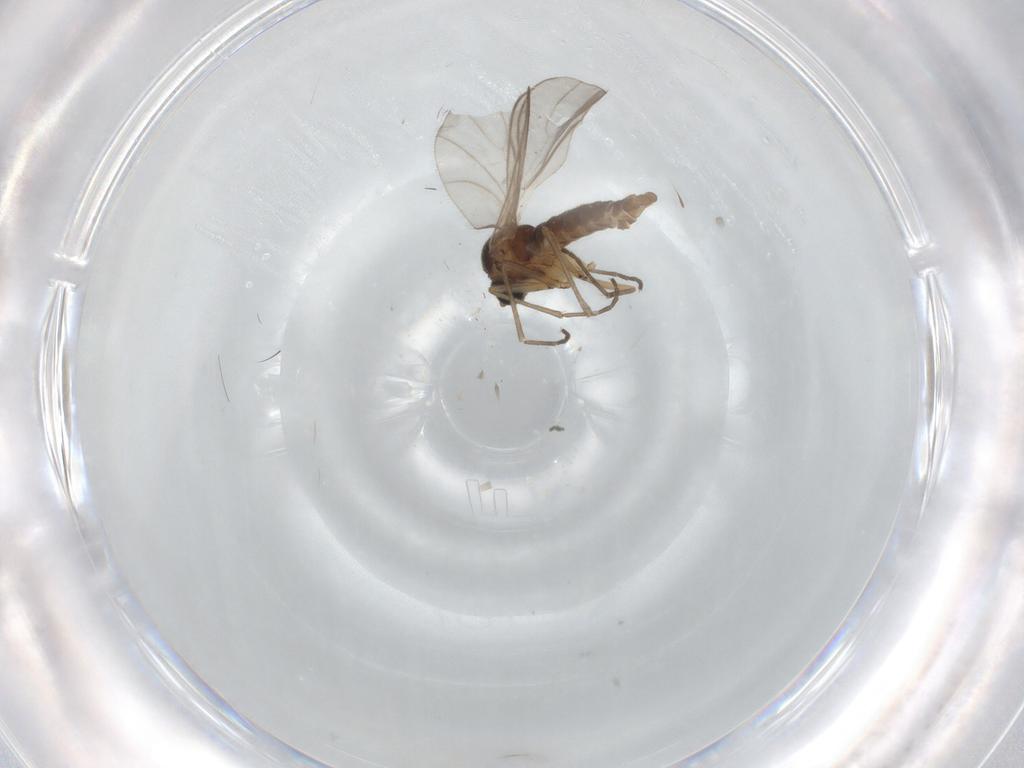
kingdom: Animalia
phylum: Arthropoda
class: Insecta
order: Diptera
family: Cecidomyiidae
